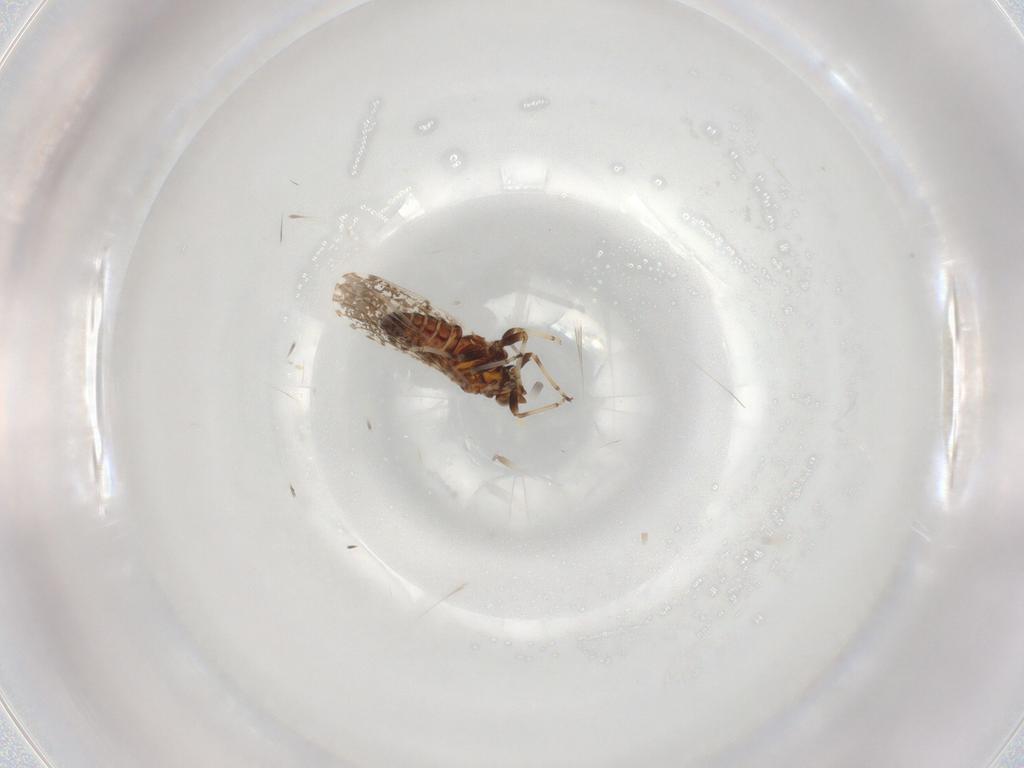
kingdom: Animalia
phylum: Arthropoda
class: Insecta
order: Hemiptera
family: Cicadellidae
